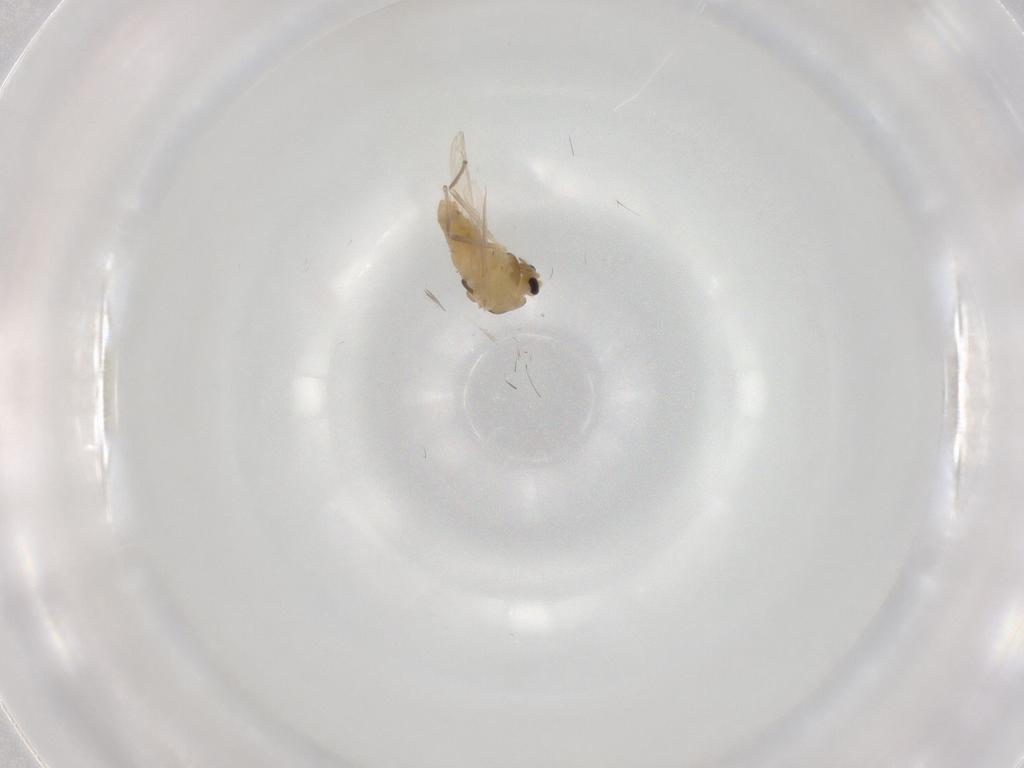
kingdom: Animalia
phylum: Arthropoda
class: Insecta
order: Diptera
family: Chironomidae
